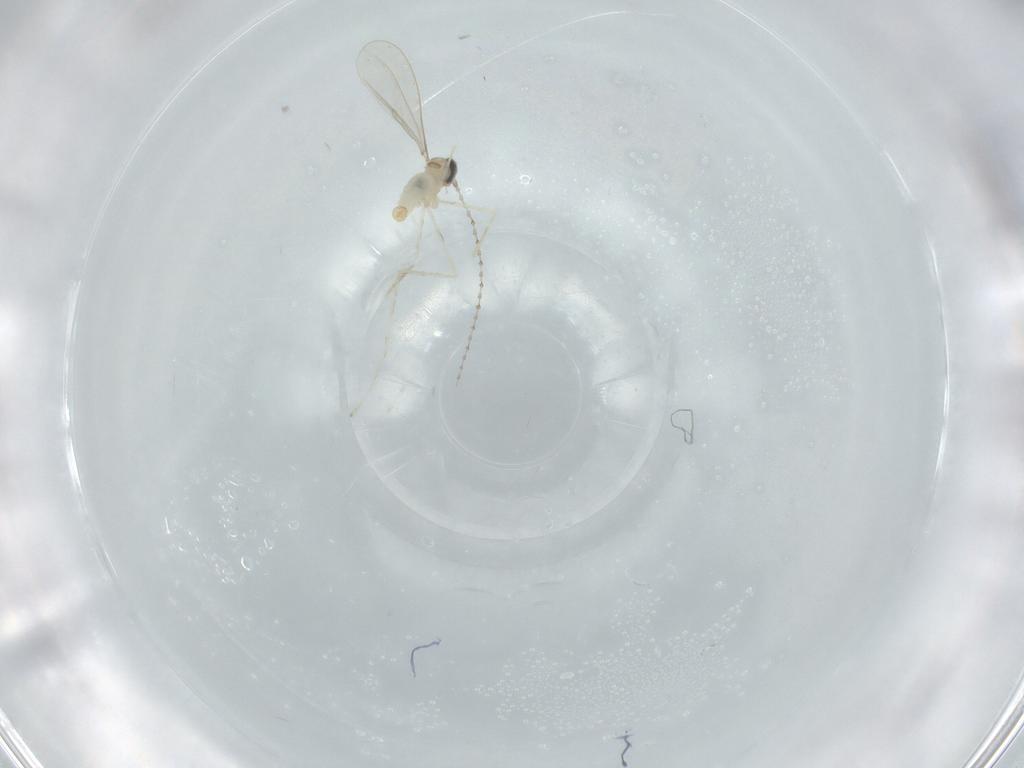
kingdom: Animalia
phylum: Arthropoda
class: Insecta
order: Diptera
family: Cecidomyiidae
